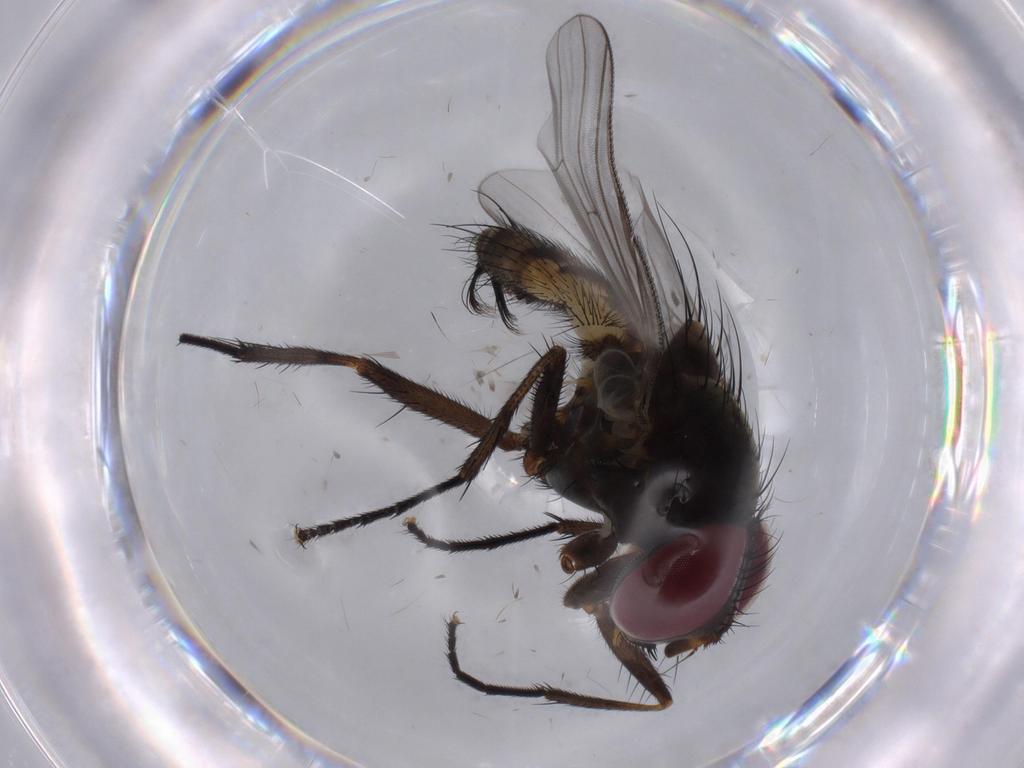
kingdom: Animalia
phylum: Arthropoda
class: Insecta
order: Diptera
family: Fannia
